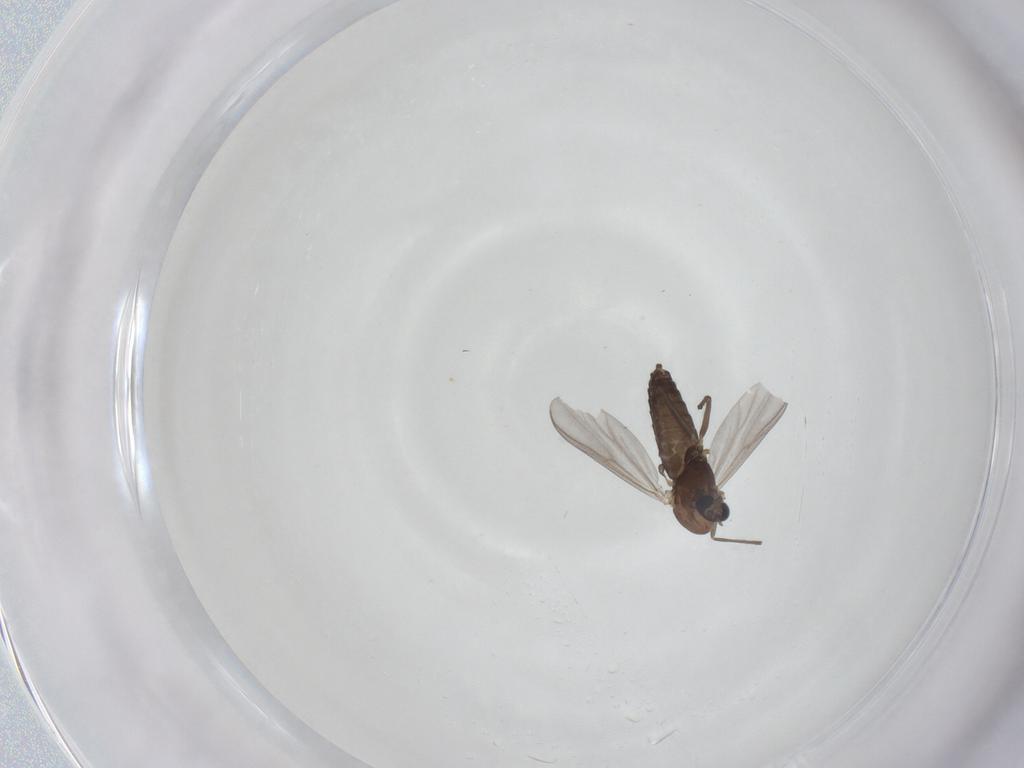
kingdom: Animalia
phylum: Arthropoda
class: Insecta
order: Diptera
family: Chironomidae
